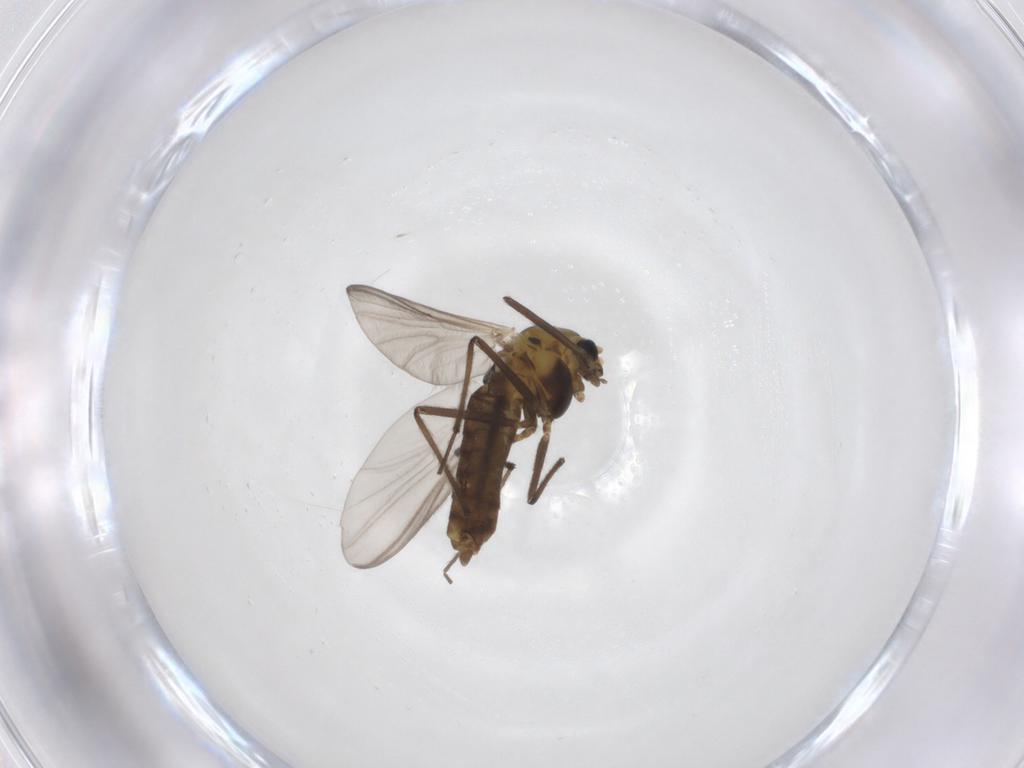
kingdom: Animalia
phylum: Arthropoda
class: Insecta
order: Diptera
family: Chironomidae
